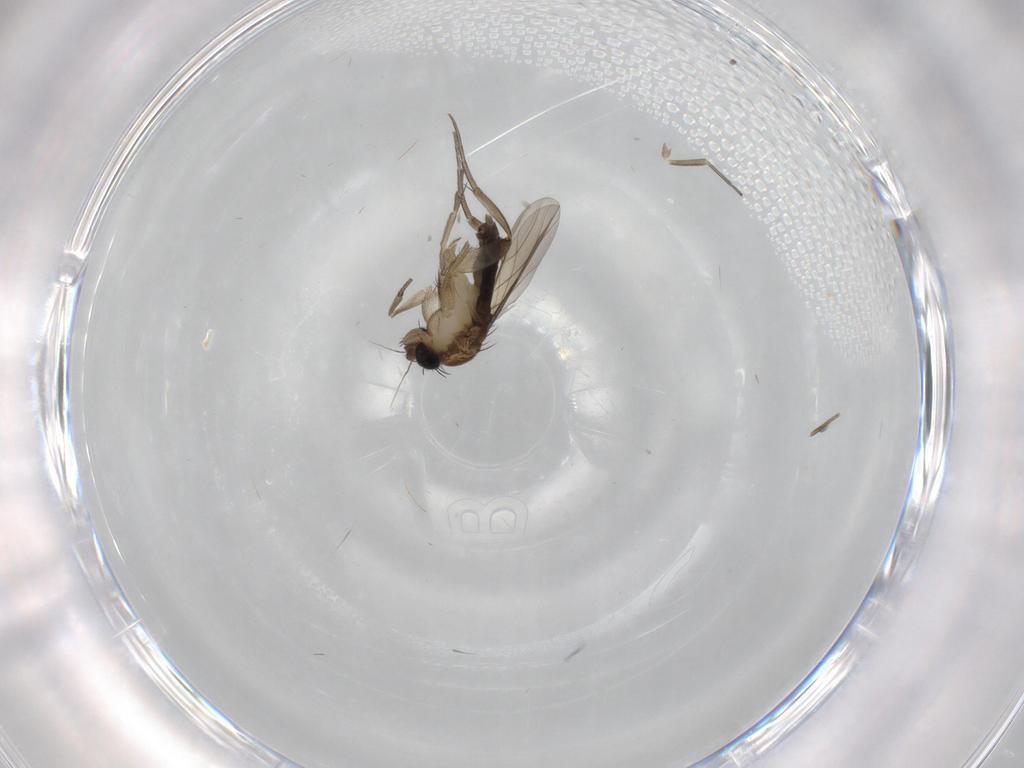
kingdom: Animalia
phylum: Arthropoda
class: Insecta
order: Diptera
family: Phoridae
